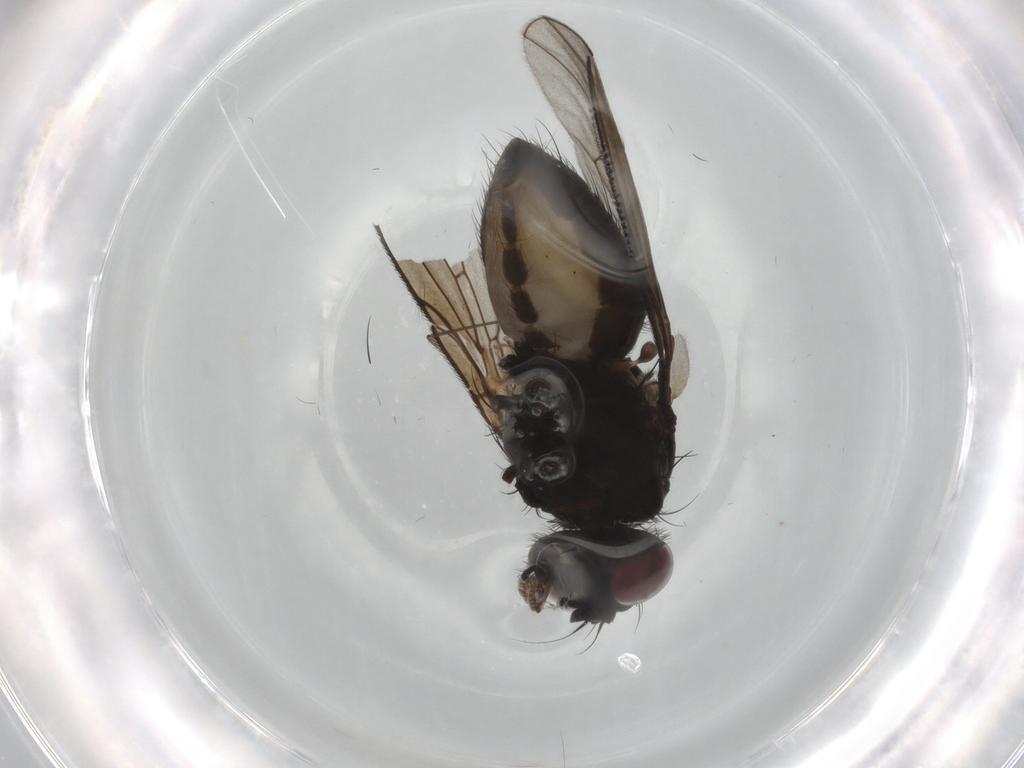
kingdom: Animalia
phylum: Arthropoda
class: Insecta
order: Diptera
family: Muscidae
